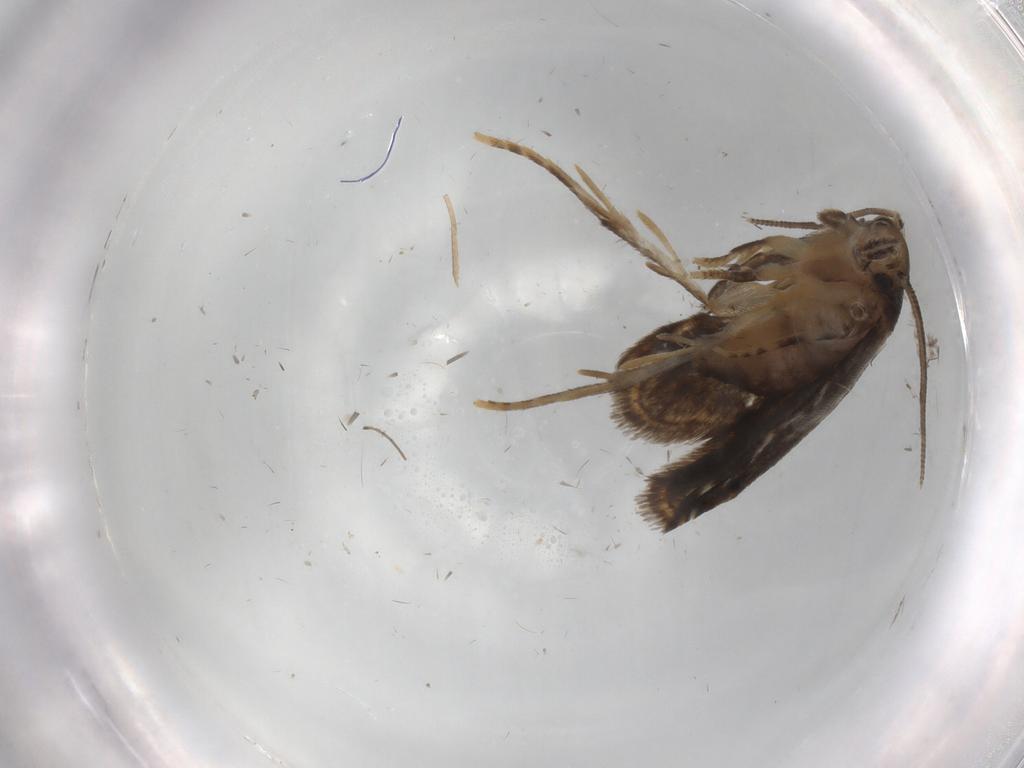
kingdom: Animalia
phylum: Arthropoda
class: Insecta
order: Lepidoptera
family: Dryadaulidae
